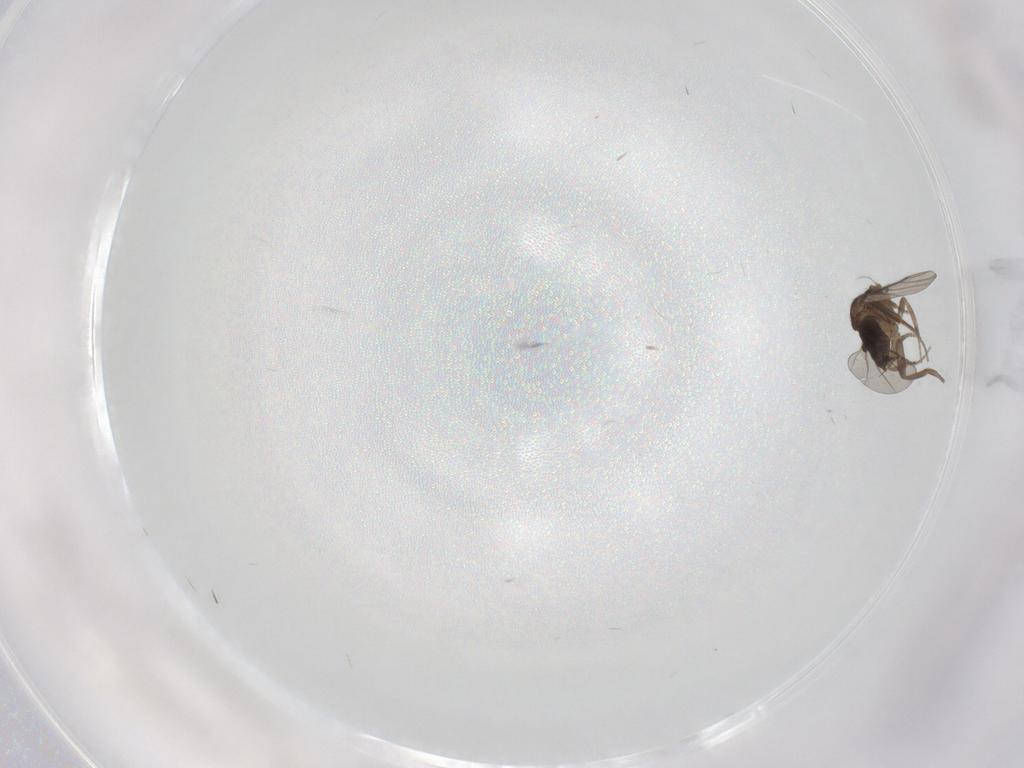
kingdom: Animalia
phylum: Arthropoda
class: Insecta
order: Diptera
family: Phoridae
